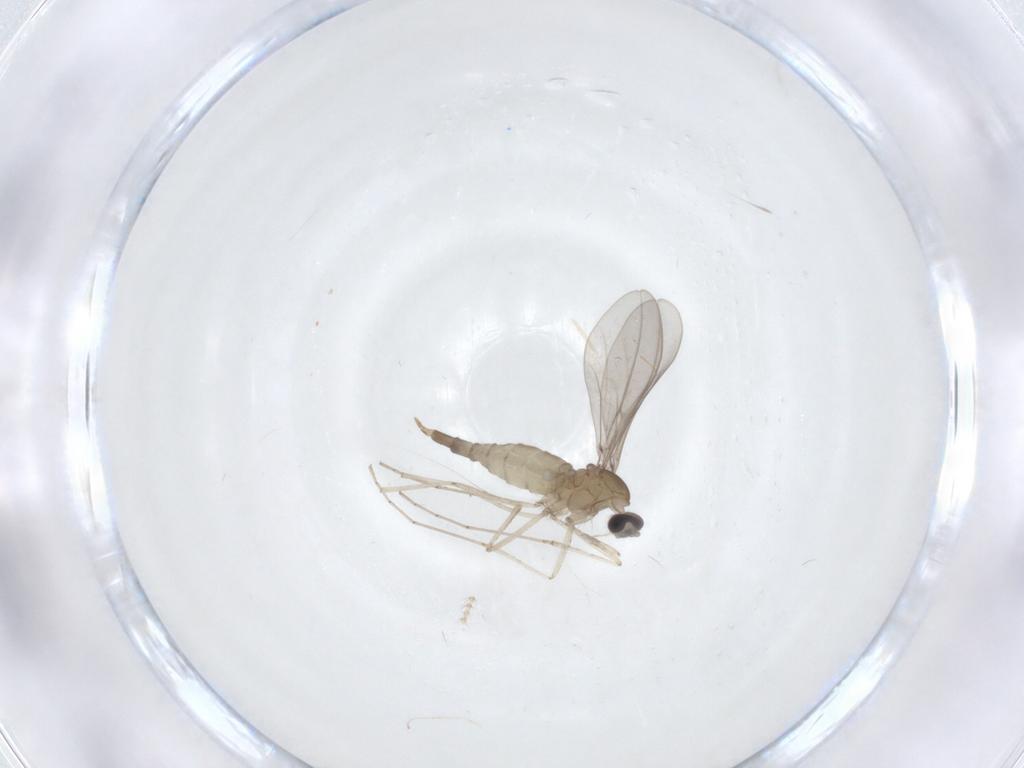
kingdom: Animalia
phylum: Arthropoda
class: Insecta
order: Diptera
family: Limoniidae
